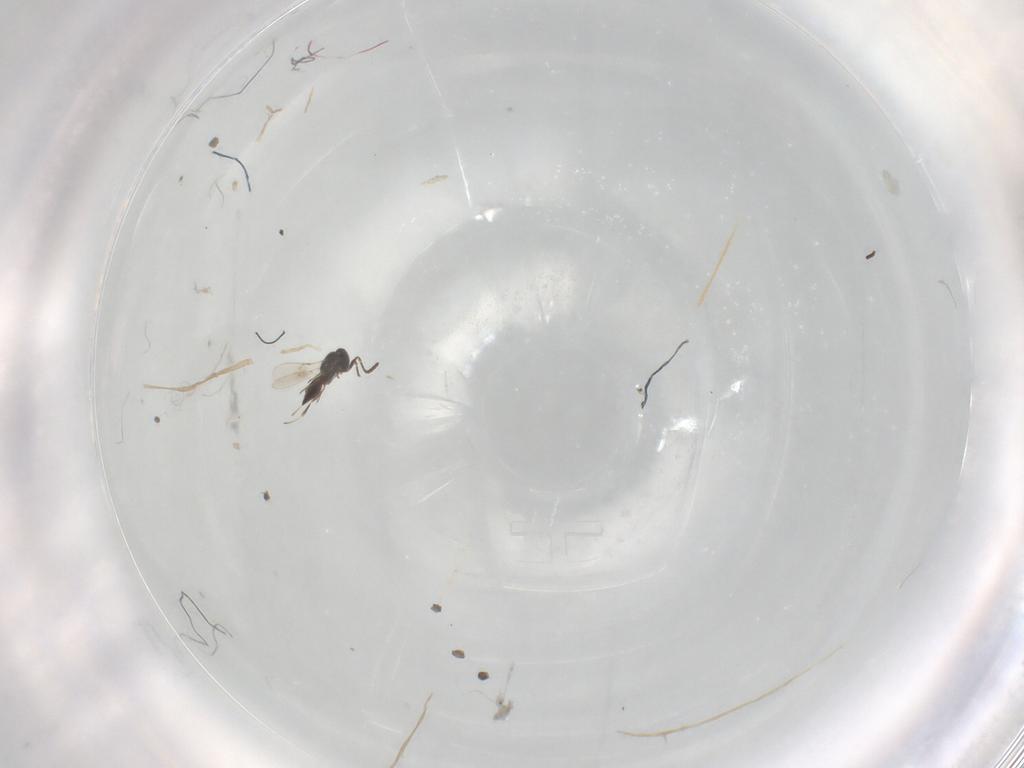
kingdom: Animalia
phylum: Arthropoda
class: Insecta
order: Hymenoptera
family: Scelionidae
